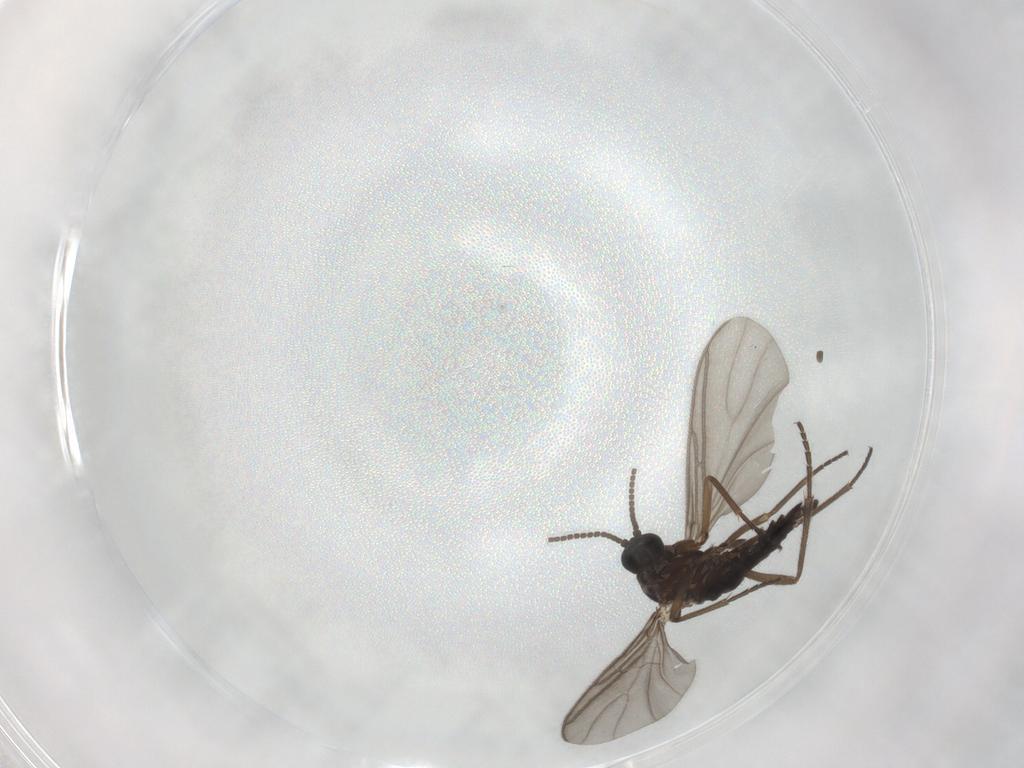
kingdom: Animalia
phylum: Arthropoda
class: Insecta
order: Diptera
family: Sciaridae
